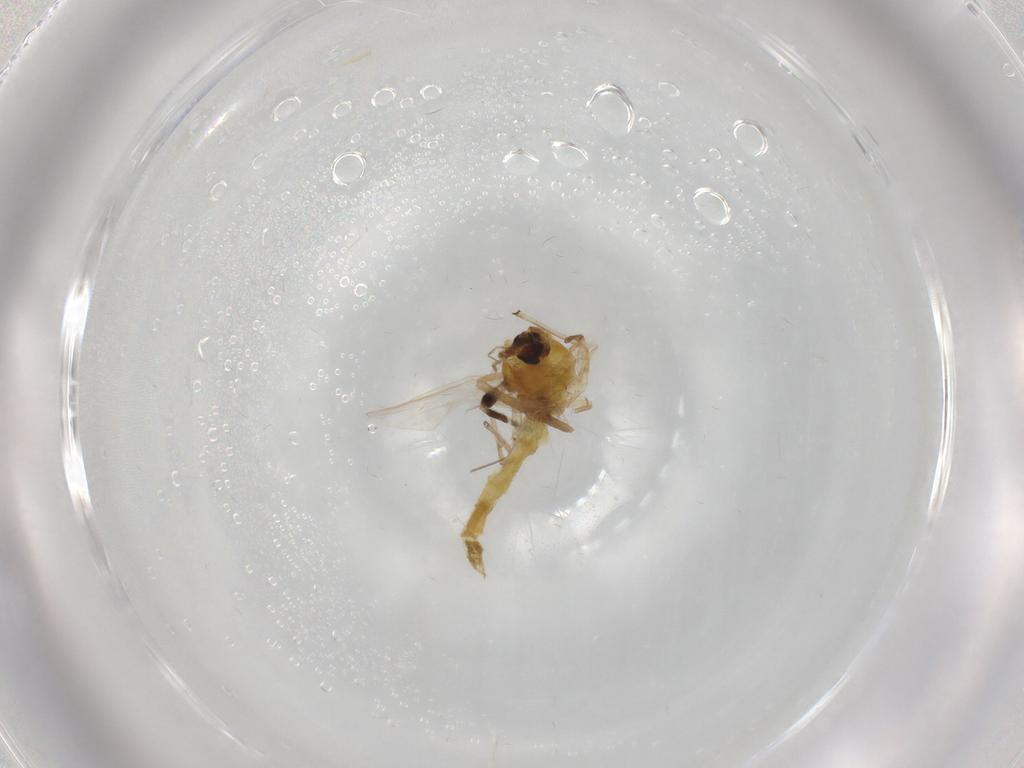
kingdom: Animalia
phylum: Arthropoda
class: Insecta
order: Diptera
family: Chironomidae
